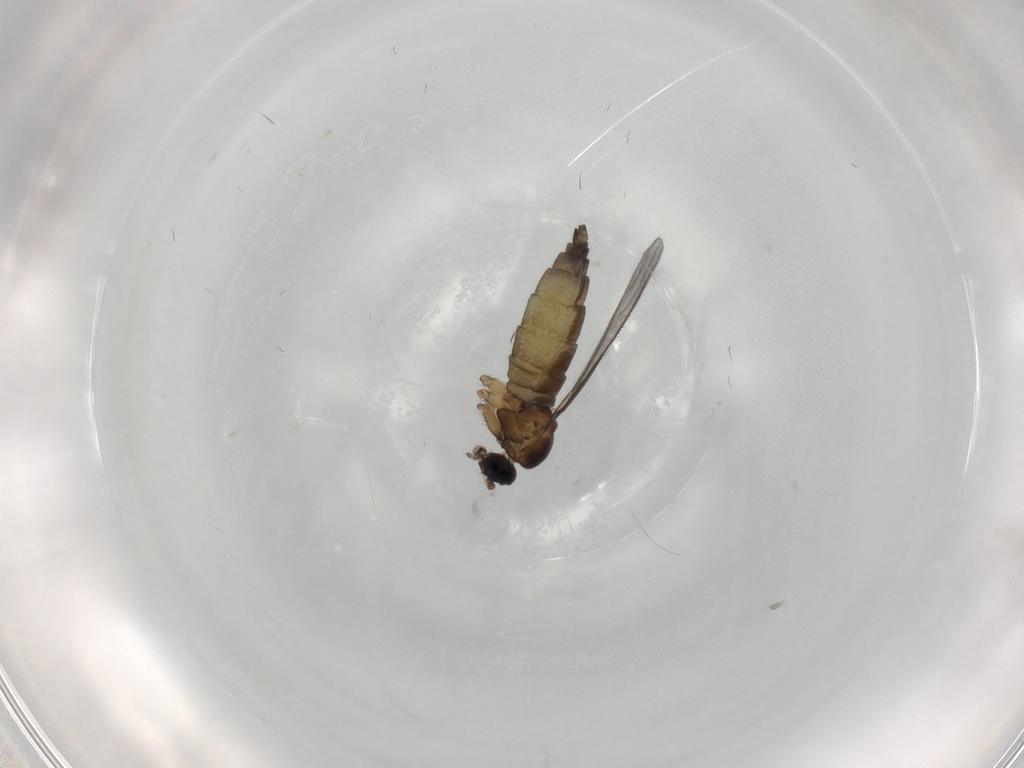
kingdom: Animalia
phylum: Arthropoda
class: Insecta
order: Diptera
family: Sciaridae
